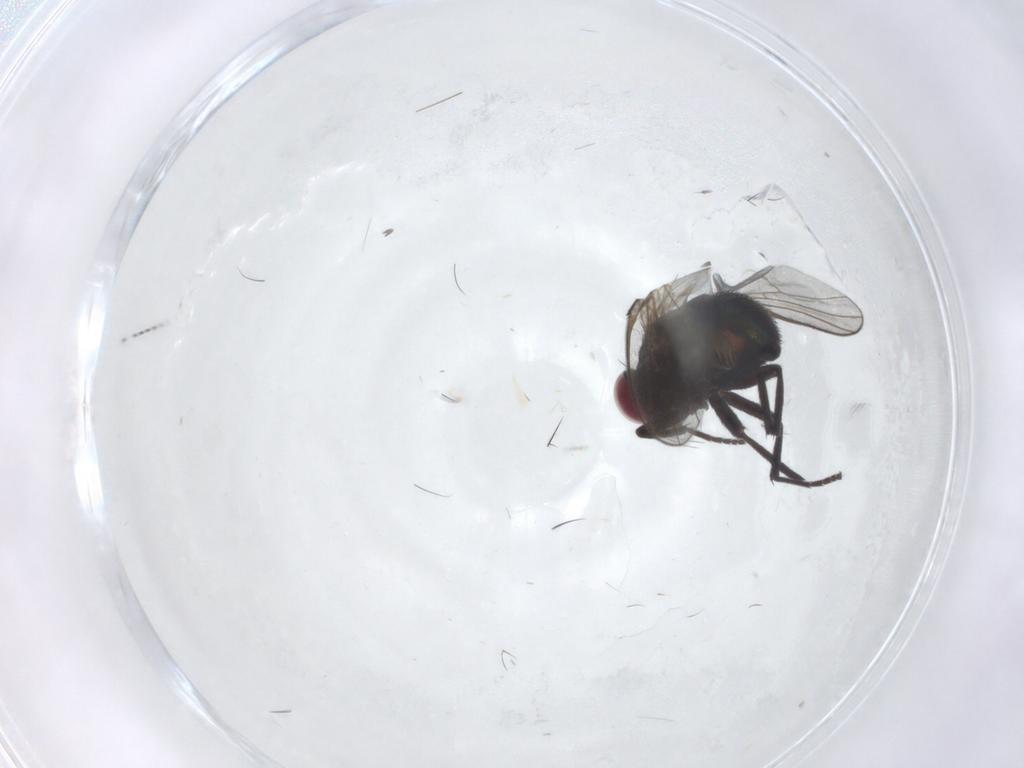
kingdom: Animalia
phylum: Arthropoda
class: Insecta
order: Diptera
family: Agromyzidae
